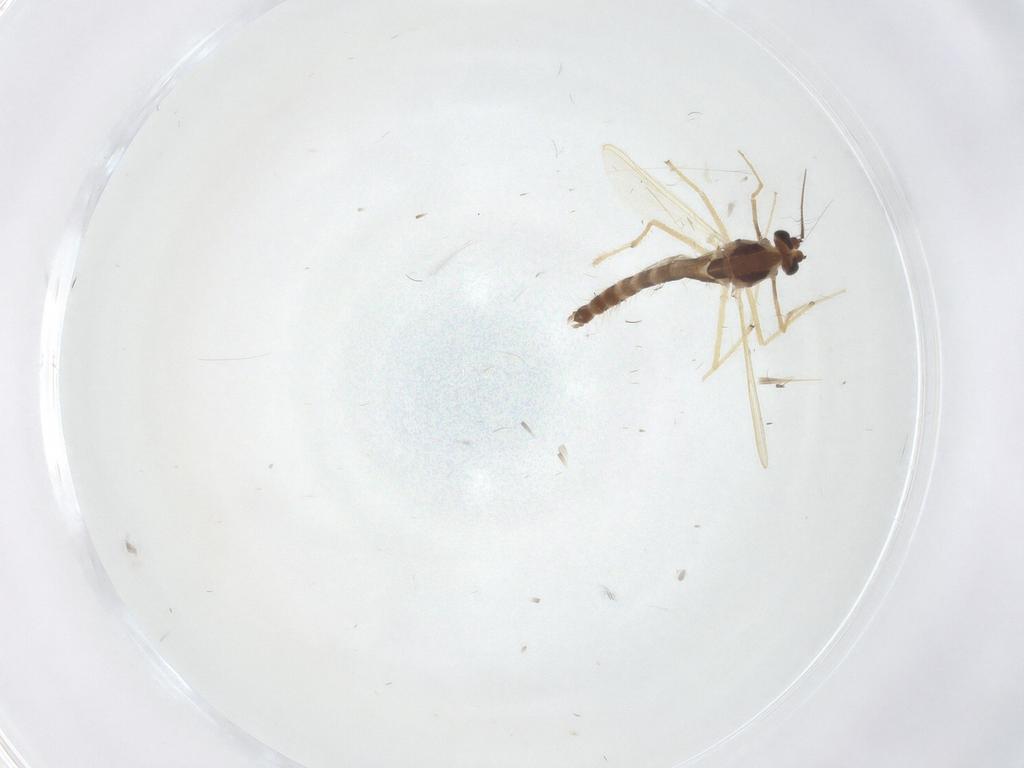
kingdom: Animalia
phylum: Arthropoda
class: Insecta
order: Diptera
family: Chironomidae
